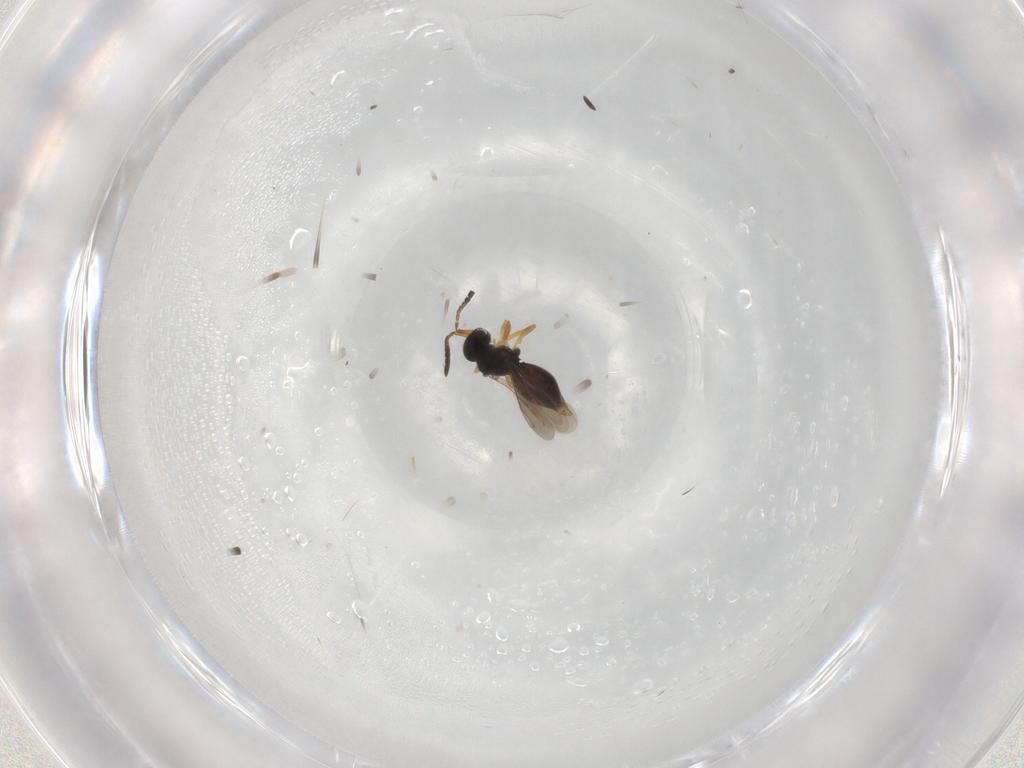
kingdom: Animalia
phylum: Arthropoda
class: Insecta
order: Hymenoptera
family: Ceraphronidae
